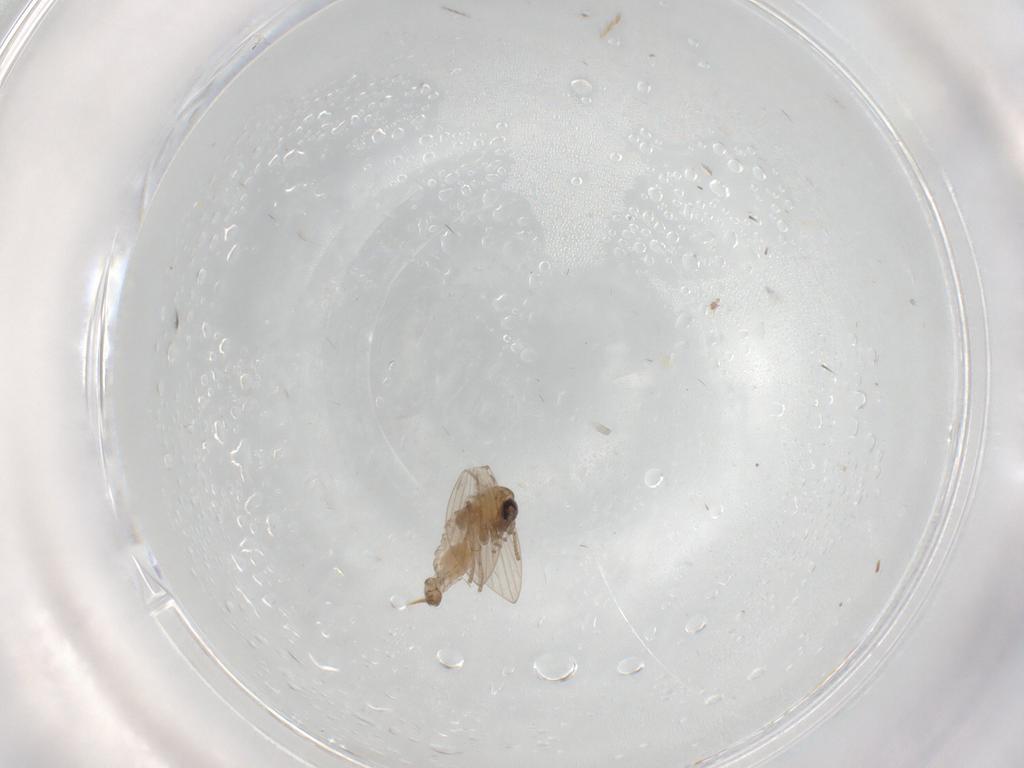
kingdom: Animalia
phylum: Arthropoda
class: Insecta
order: Diptera
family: Psychodidae
